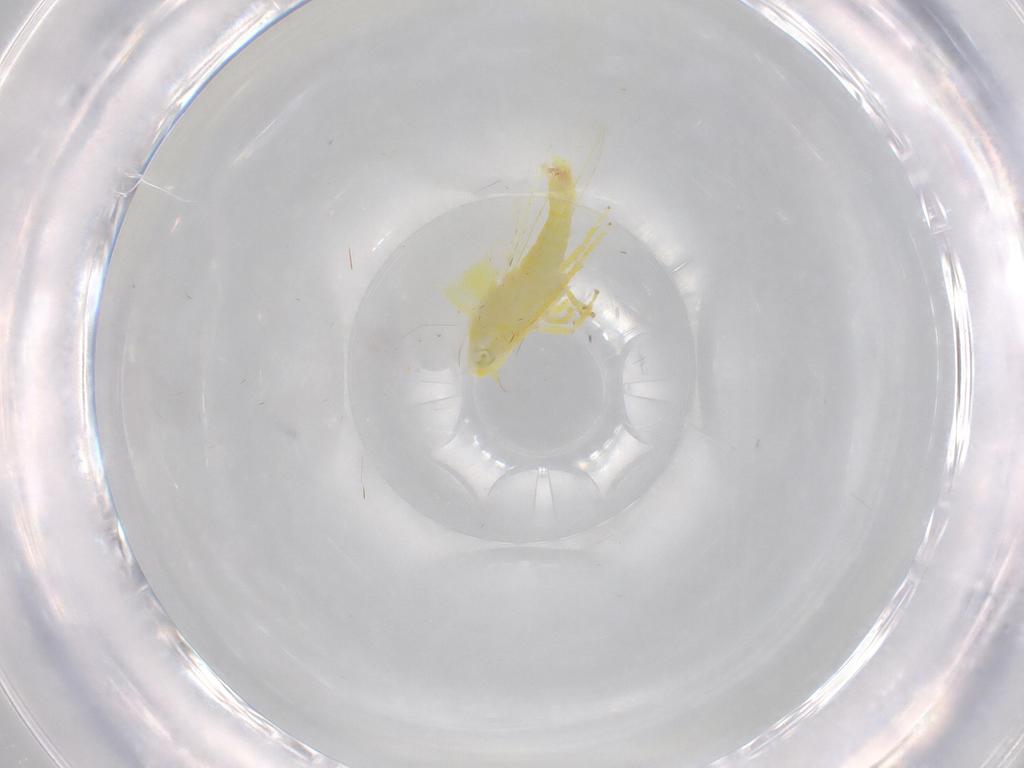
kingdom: Animalia
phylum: Arthropoda
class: Insecta
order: Hemiptera
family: Cicadellidae
